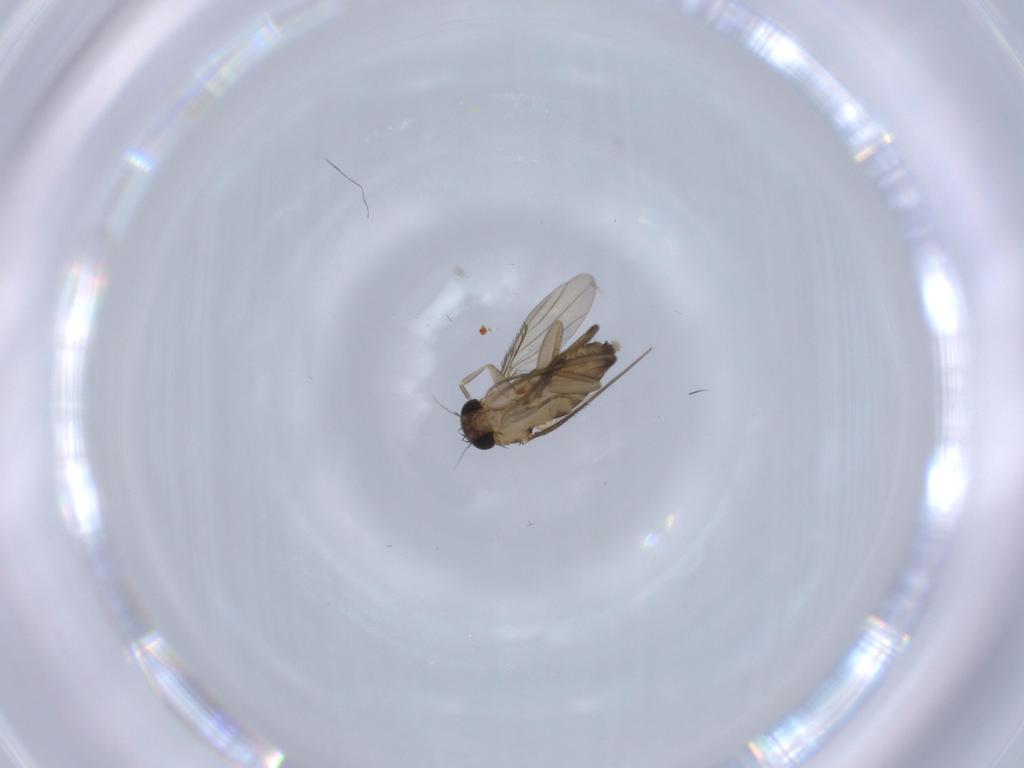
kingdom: Animalia
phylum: Arthropoda
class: Insecta
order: Diptera
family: Phoridae
